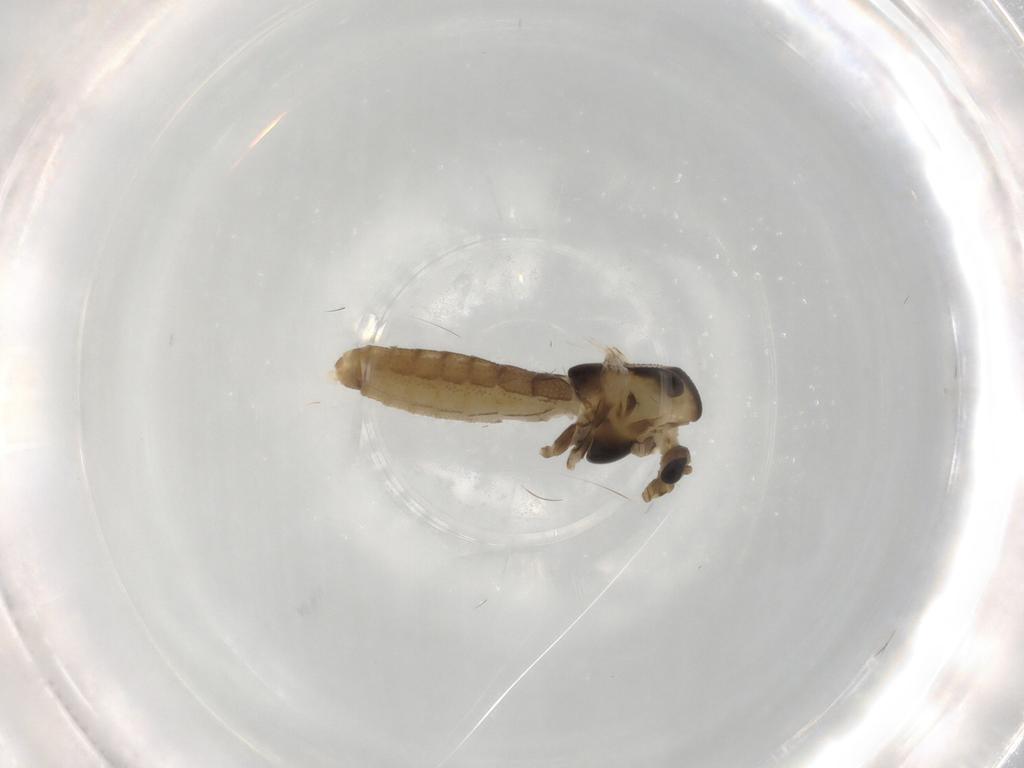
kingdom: Animalia
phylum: Arthropoda
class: Insecta
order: Diptera
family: Chironomidae
